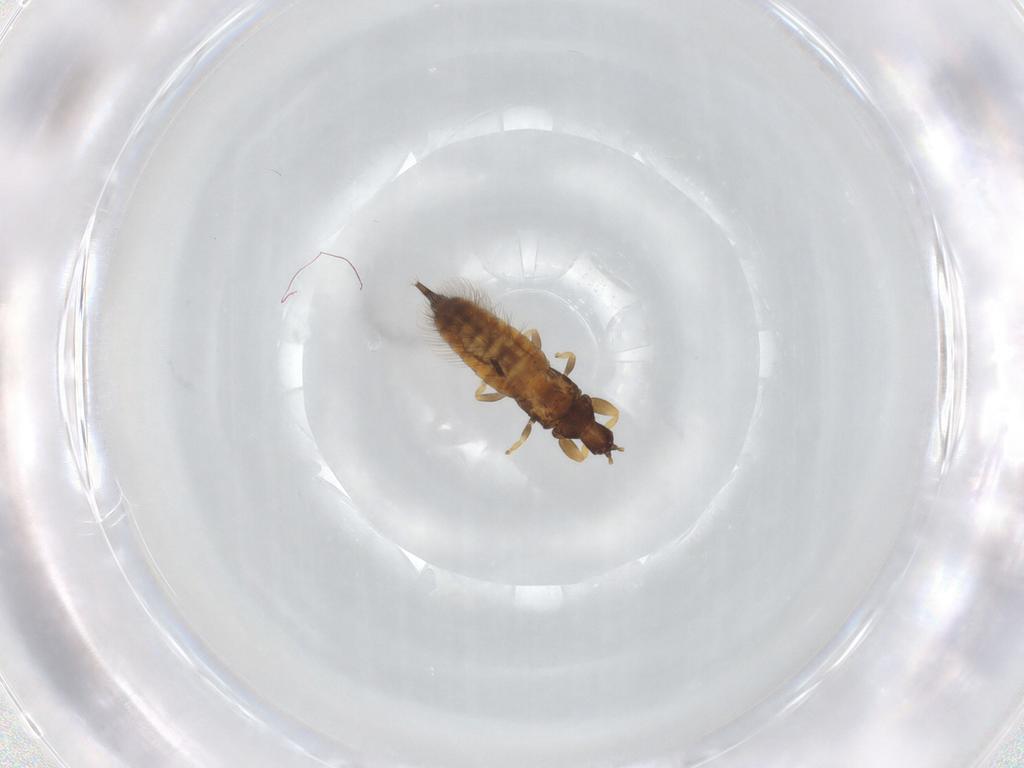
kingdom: Animalia
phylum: Arthropoda
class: Insecta
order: Thysanoptera
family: Phlaeothripidae
